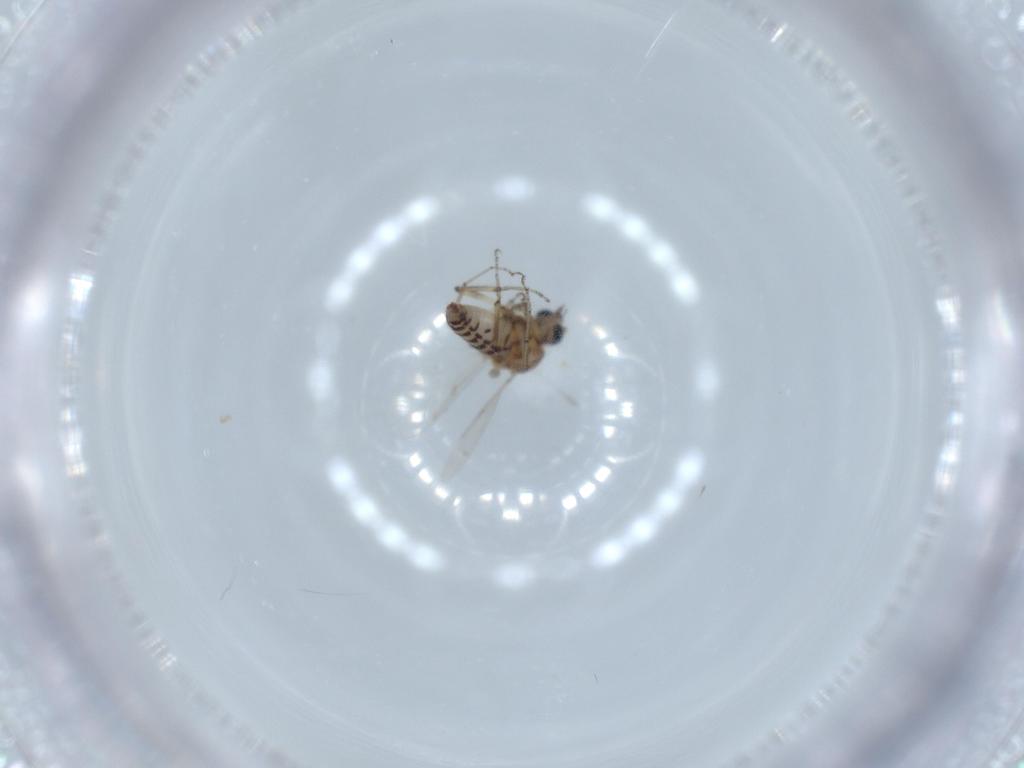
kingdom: Animalia
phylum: Arthropoda
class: Insecta
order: Diptera
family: Ceratopogonidae
